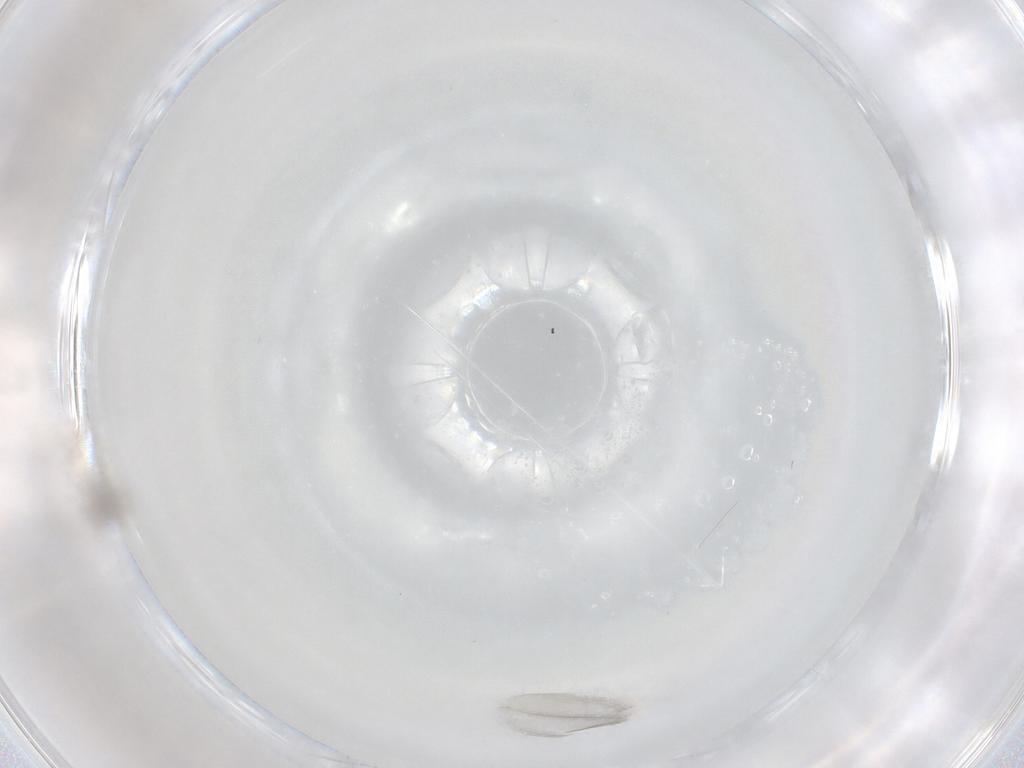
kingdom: Animalia
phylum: Arthropoda
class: Insecta
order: Diptera
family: Cecidomyiidae
